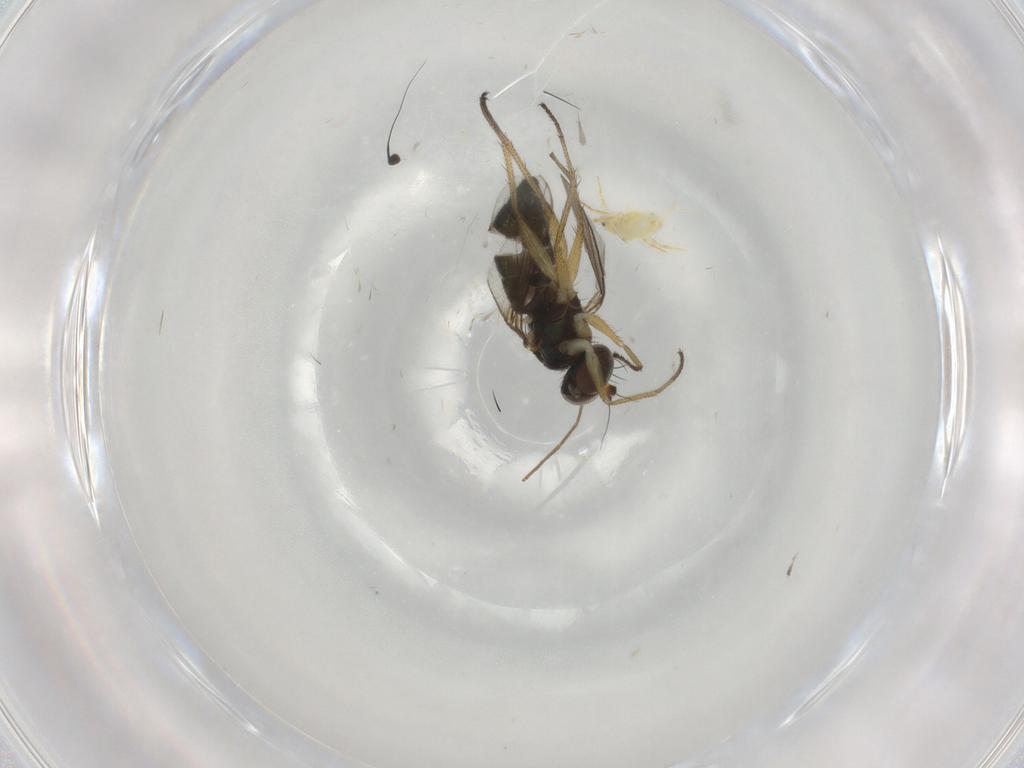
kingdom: Animalia
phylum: Arthropoda
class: Insecta
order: Diptera
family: Dolichopodidae
